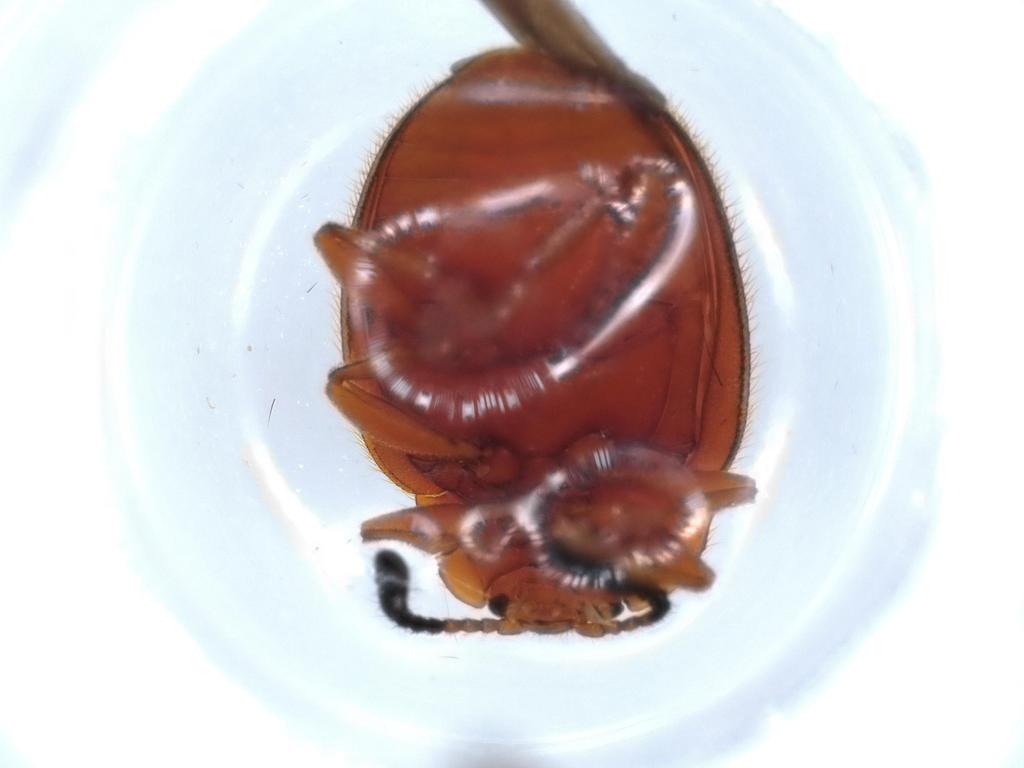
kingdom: Animalia
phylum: Arthropoda
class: Insecta
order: Coleoptera
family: Endomychidae
